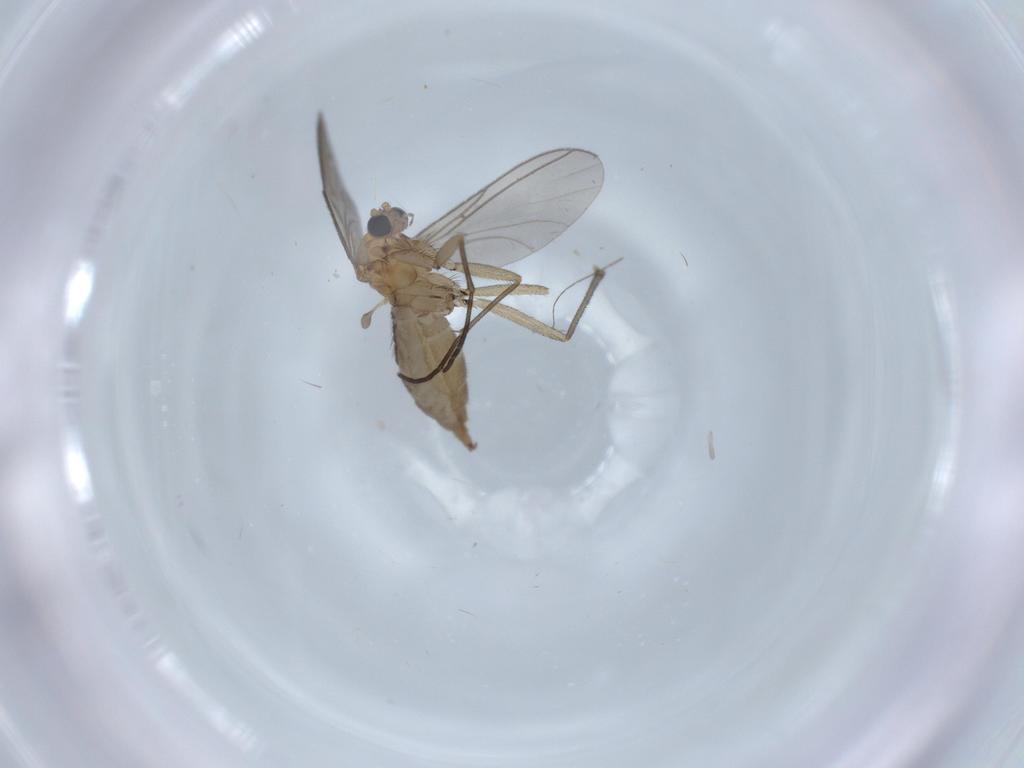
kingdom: Animalia
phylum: Arthropoda
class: Insecta
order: Diptera
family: Sciaridae
